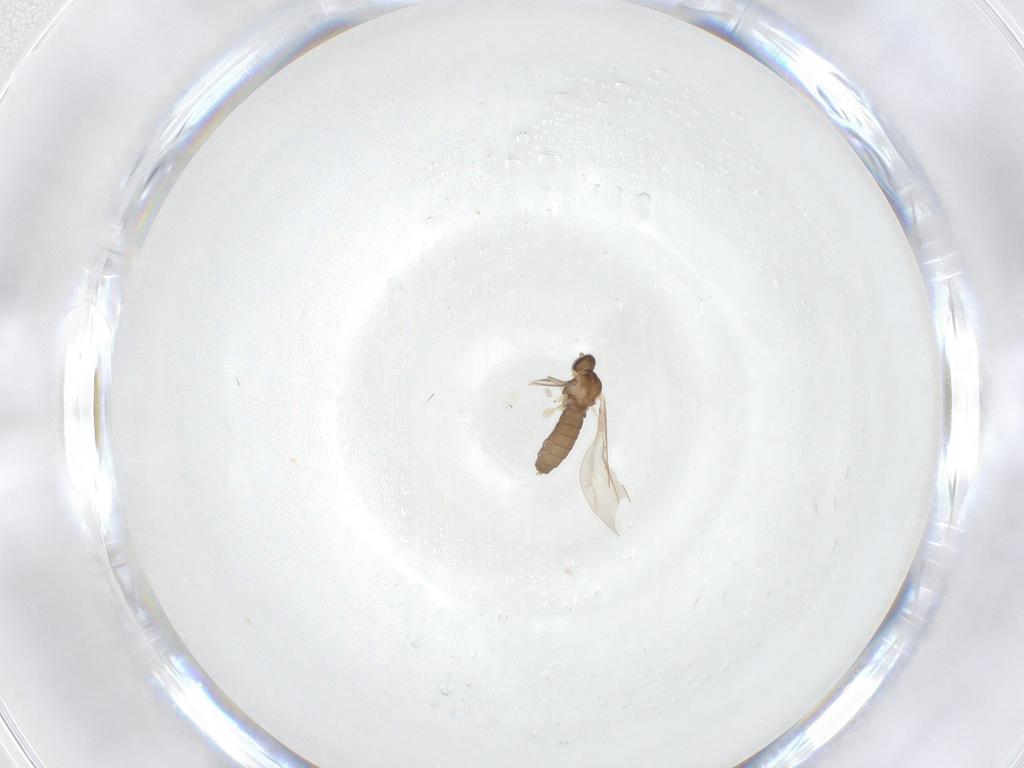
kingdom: Animalia
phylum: Arthropoda
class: Insecta
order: Diptera
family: Cecidomyiidae
